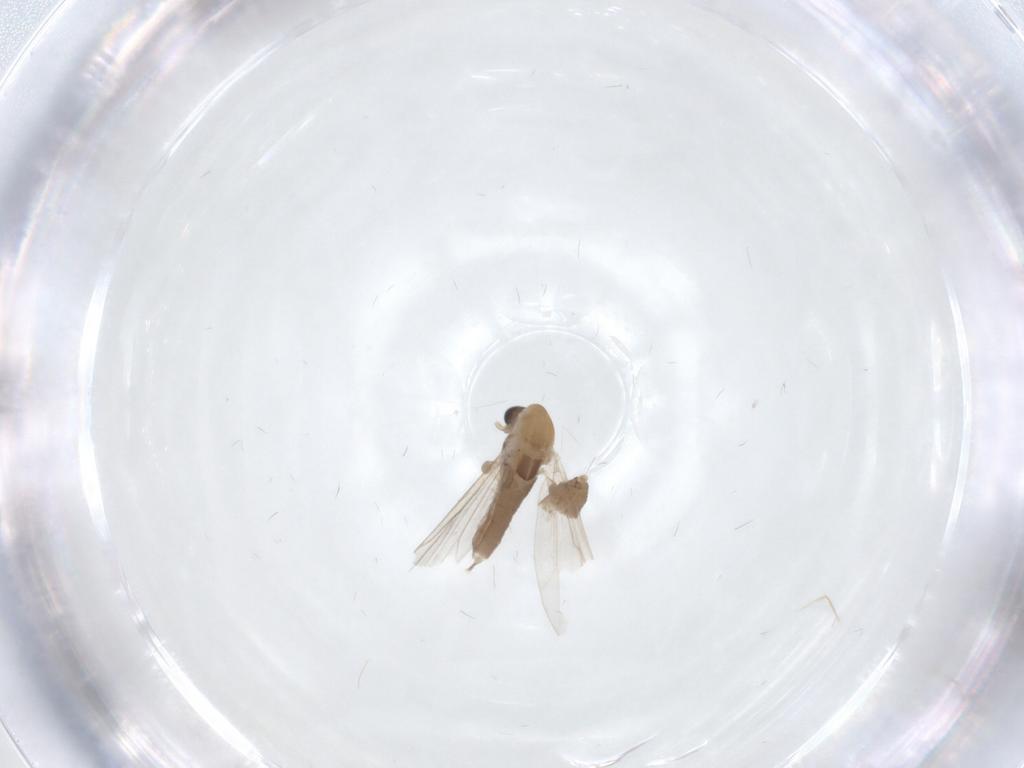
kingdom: Animalia
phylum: Arthropoda
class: Insecta
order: Diptera
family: Chironomidae
